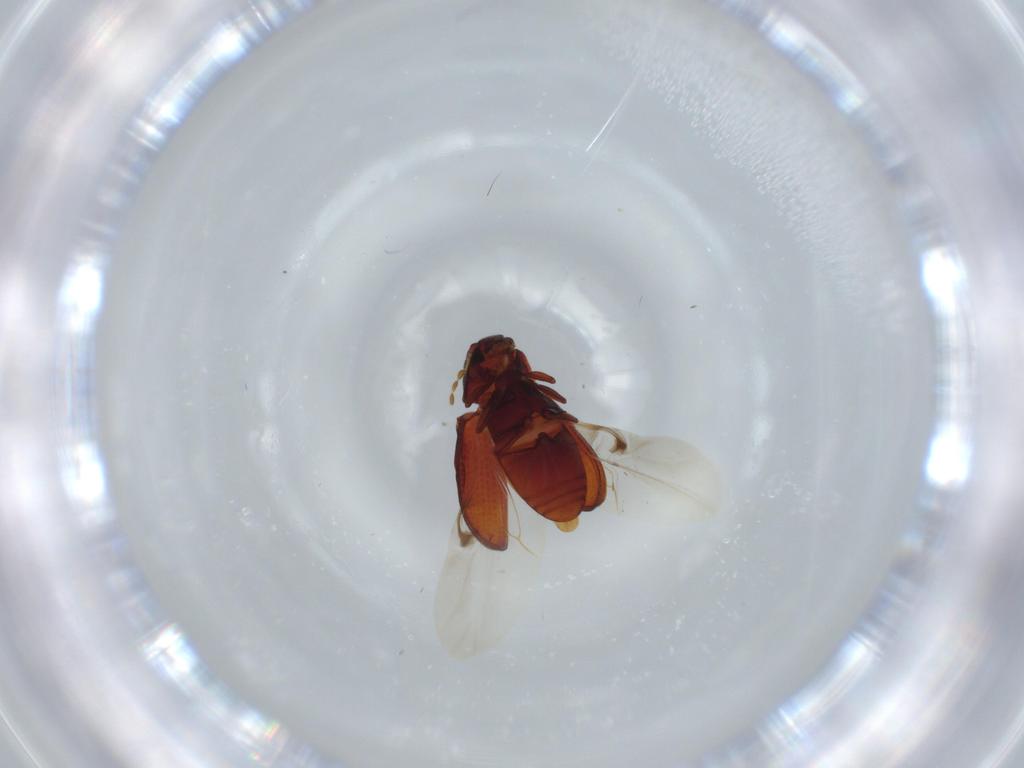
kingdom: Animalia
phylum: Arthropoda
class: Insecta
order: Coleoptera
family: Ptinidae
